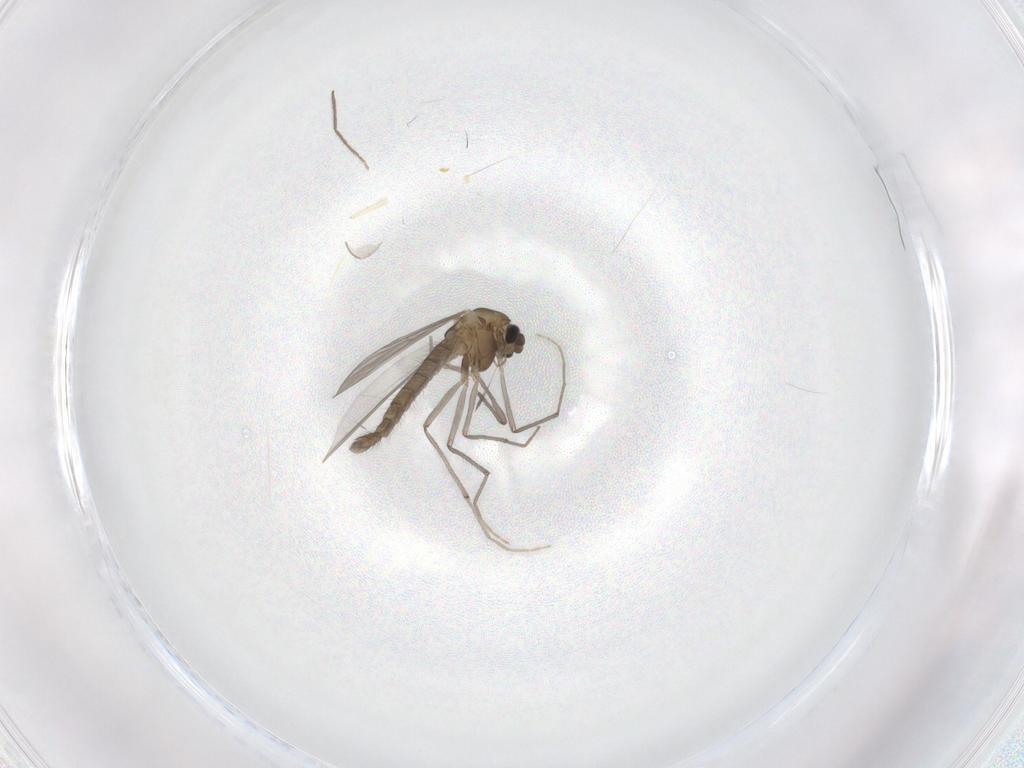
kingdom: Animalia
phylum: Arthropoda
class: Insecta
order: Diptera
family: Chironomidae
